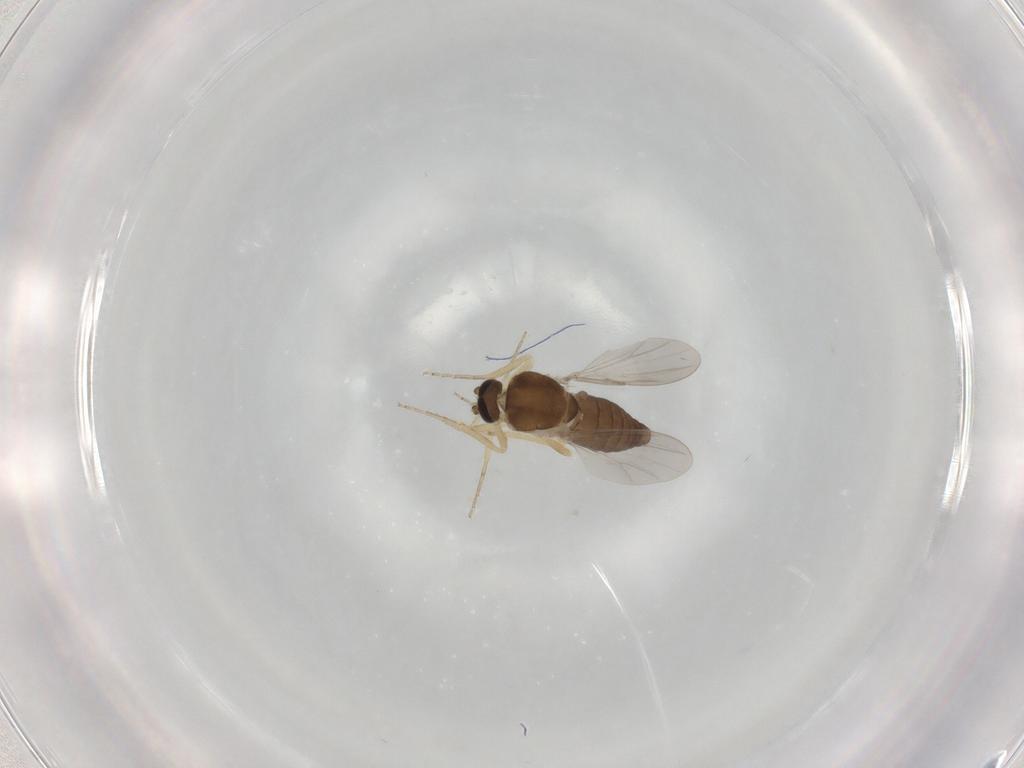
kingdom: Animalia
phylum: Arthropoda
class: Insecta
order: Diptera
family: Ceratopogonidae
